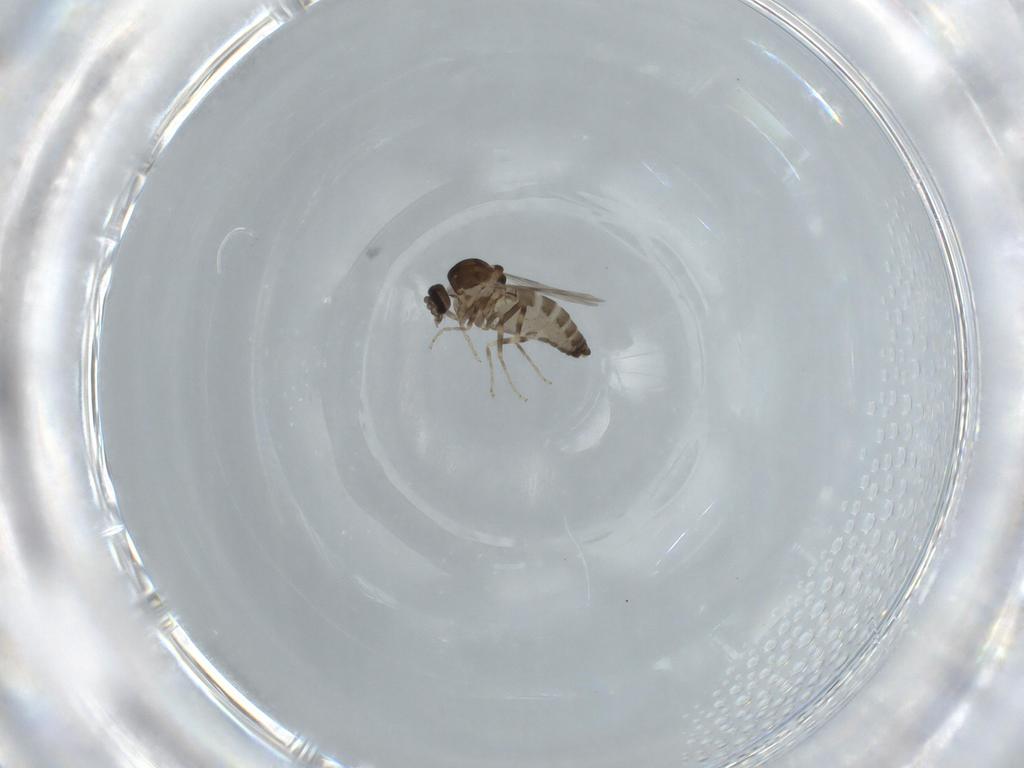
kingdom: Animalia
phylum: Arthropoda
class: Insecta
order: Diptera
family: Ceratopogonidae
